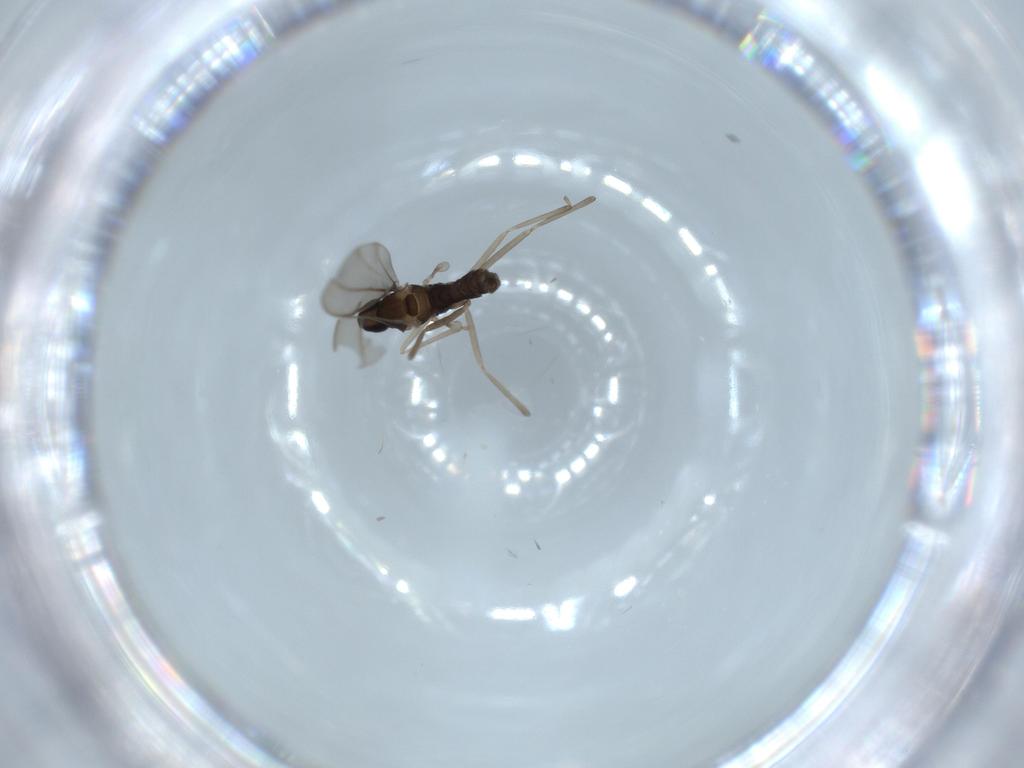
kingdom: Animalia
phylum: Arthropoda
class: Insecta
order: Diptera
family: Cecidomyiidae
